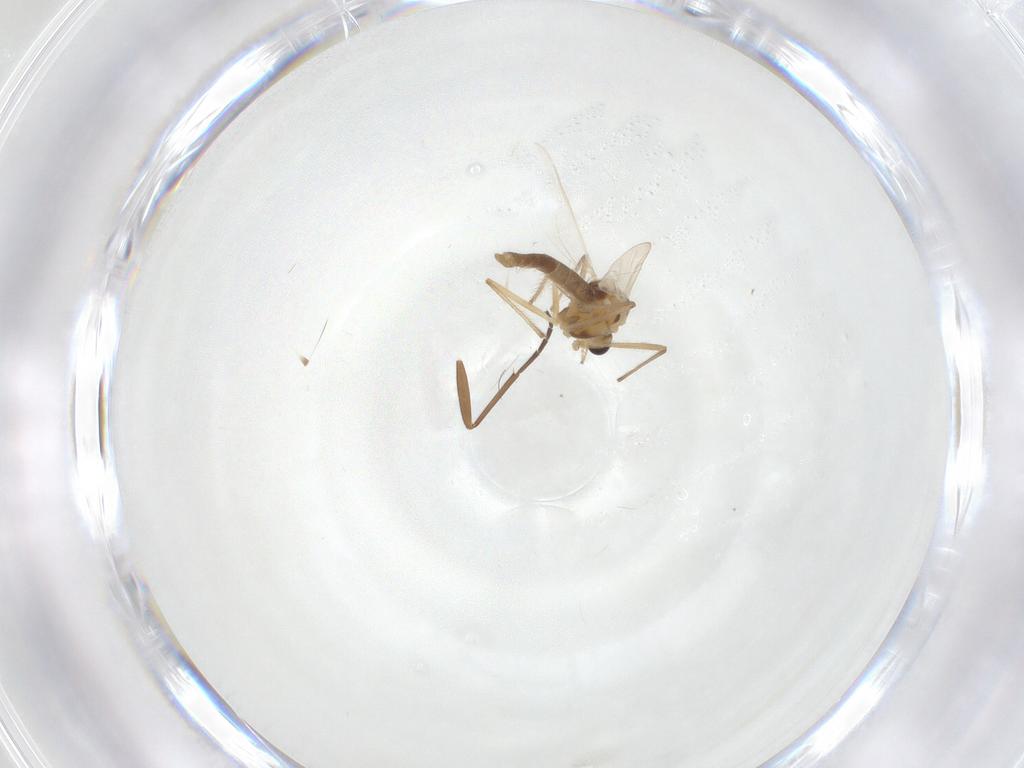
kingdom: Animalia
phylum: Arthropoda
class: Insecta
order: Diptera
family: Chironomidae
